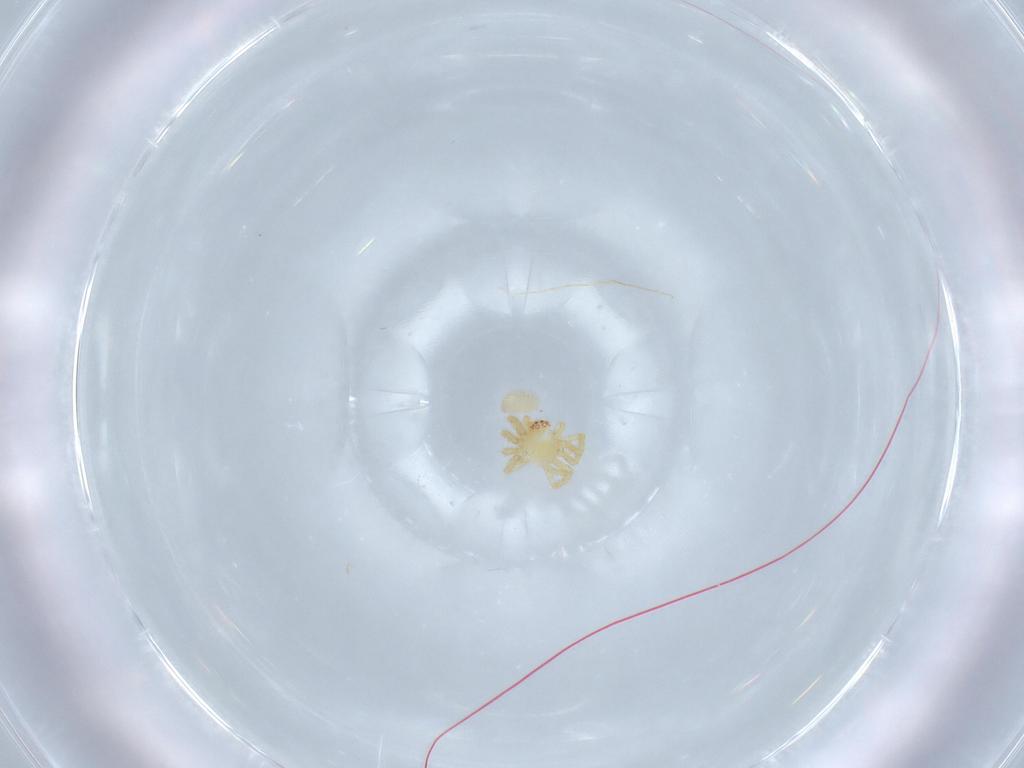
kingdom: Animalia
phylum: Arthropoda
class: Arachnida
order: Araneae
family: Theridiidae
